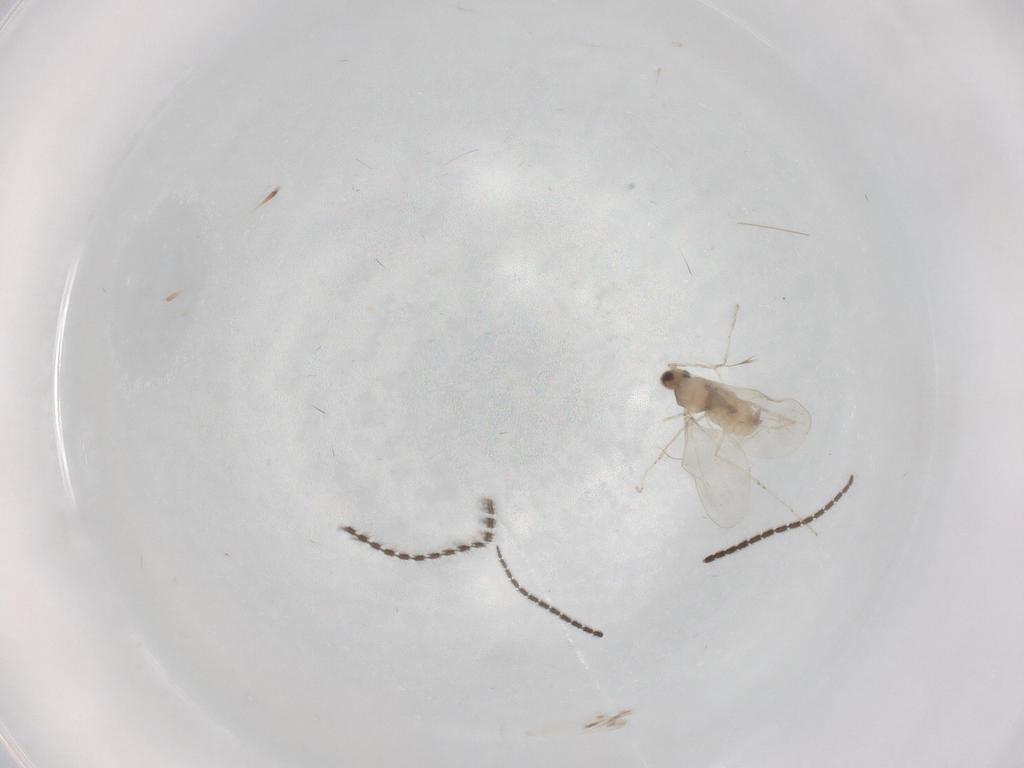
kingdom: Animalia
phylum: Arthropoda
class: Insecta
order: Diptera
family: Cecidomyiidae
